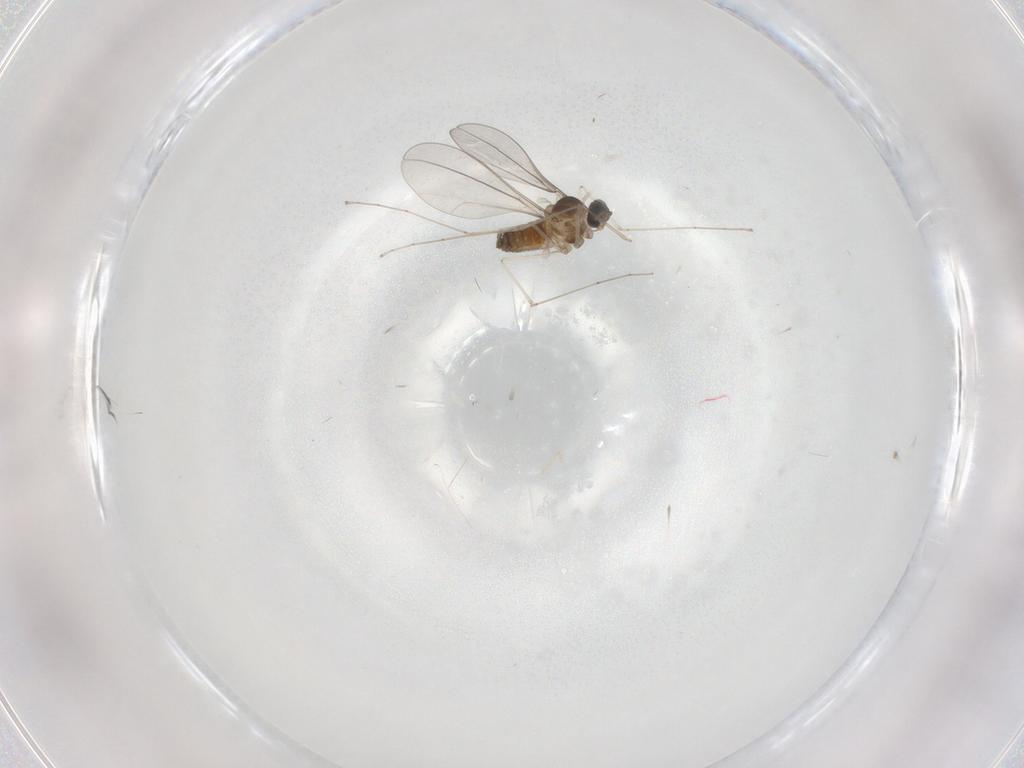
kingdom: Animalia
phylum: Arthropoda
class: Insecta
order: Diptera
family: Cecidomyiidae
